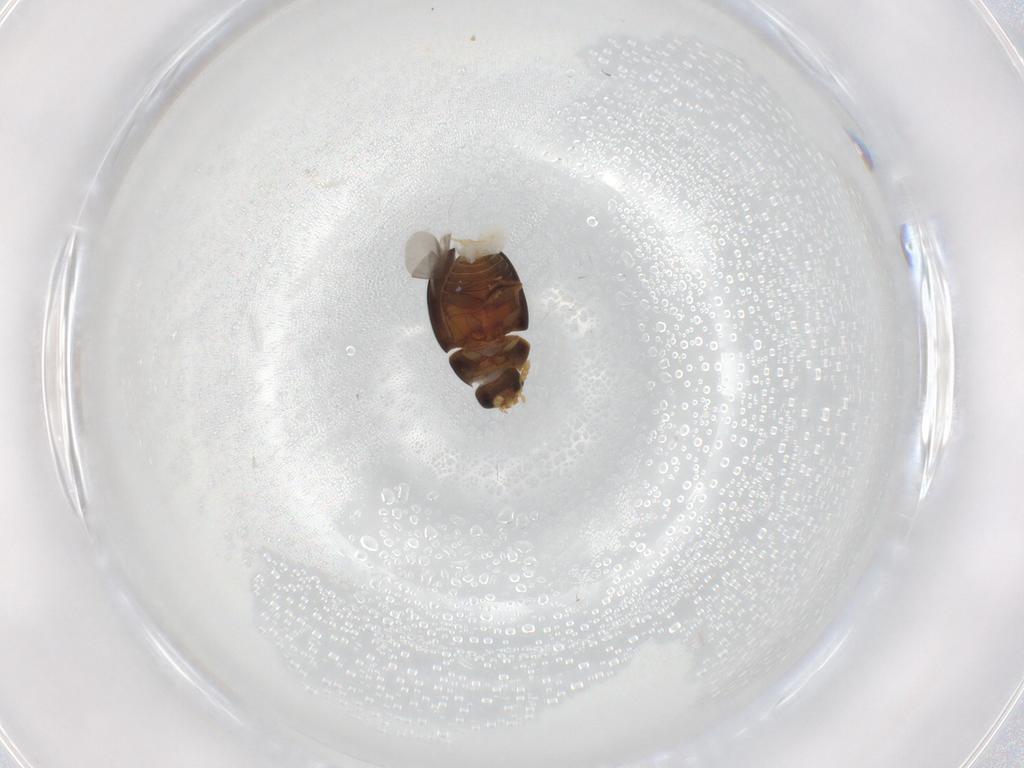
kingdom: Animalia
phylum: Arthropoda
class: Insecta
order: Coleoptera
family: Phalacridae
